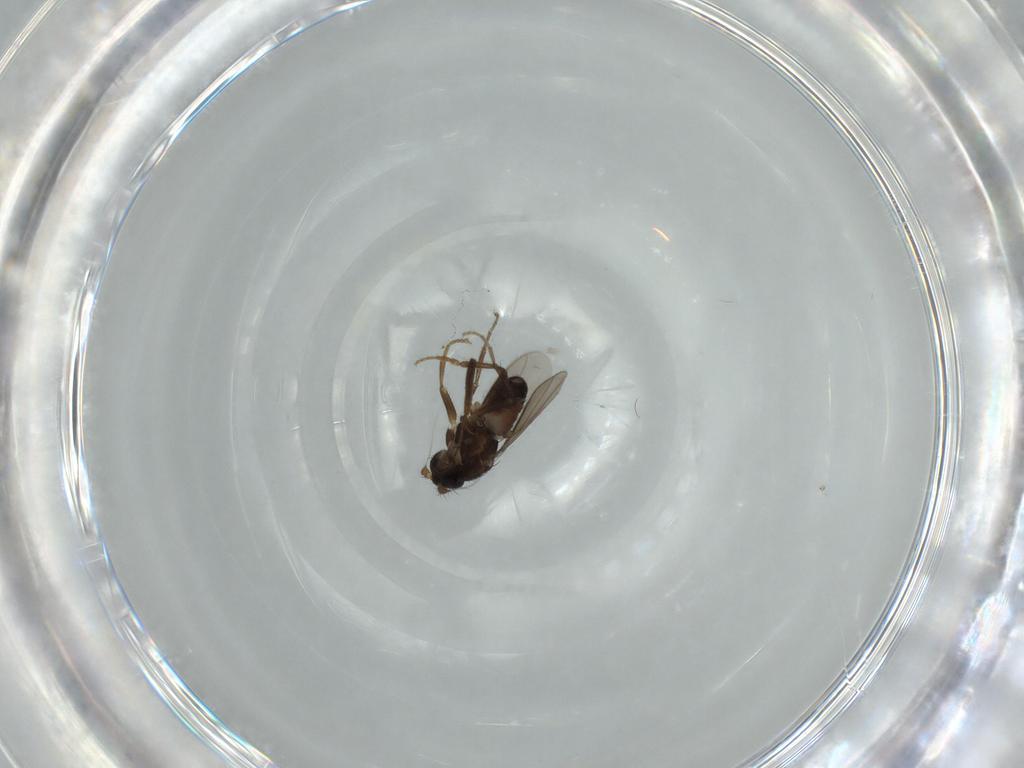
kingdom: Animalia
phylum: Arthropoda
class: Insecta
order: Diptera
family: Sphaeroceridae
